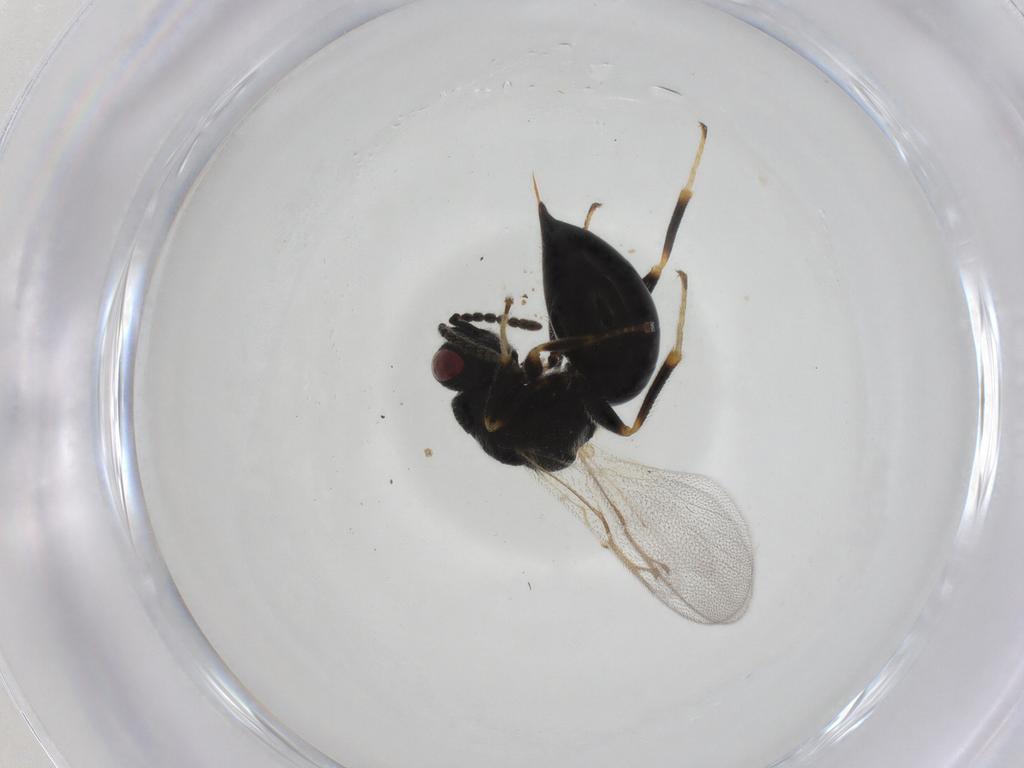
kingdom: Animalia
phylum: Arthropoda
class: Insecta
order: Hymenoptera
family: Eurytomidae
